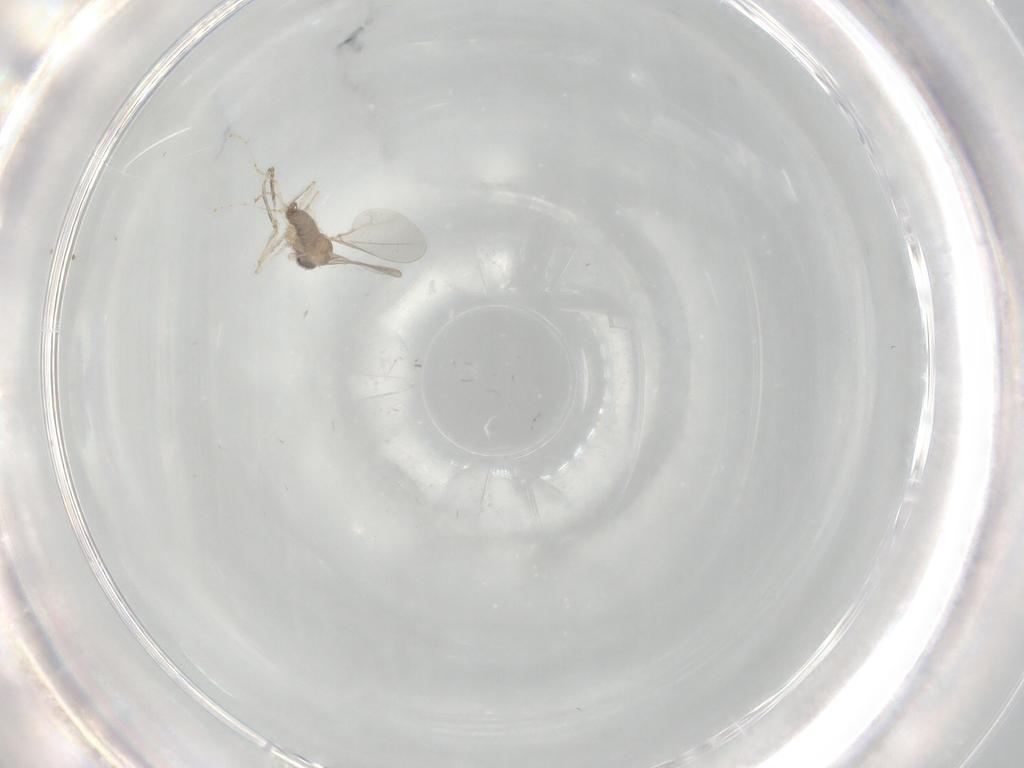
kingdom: Animalia
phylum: Arthropoda
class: Insecta
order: Diptera
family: Cecidomyiidae
